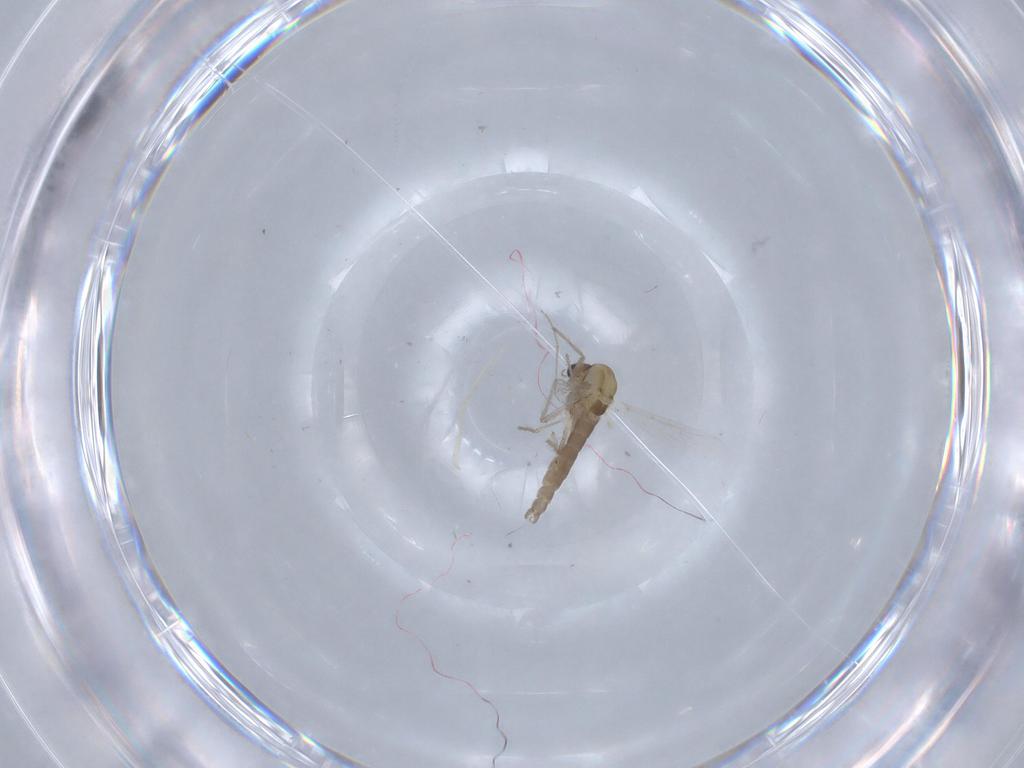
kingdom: Animalia
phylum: Arthropoda
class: Insecta
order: Diptera
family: Chironomidae
